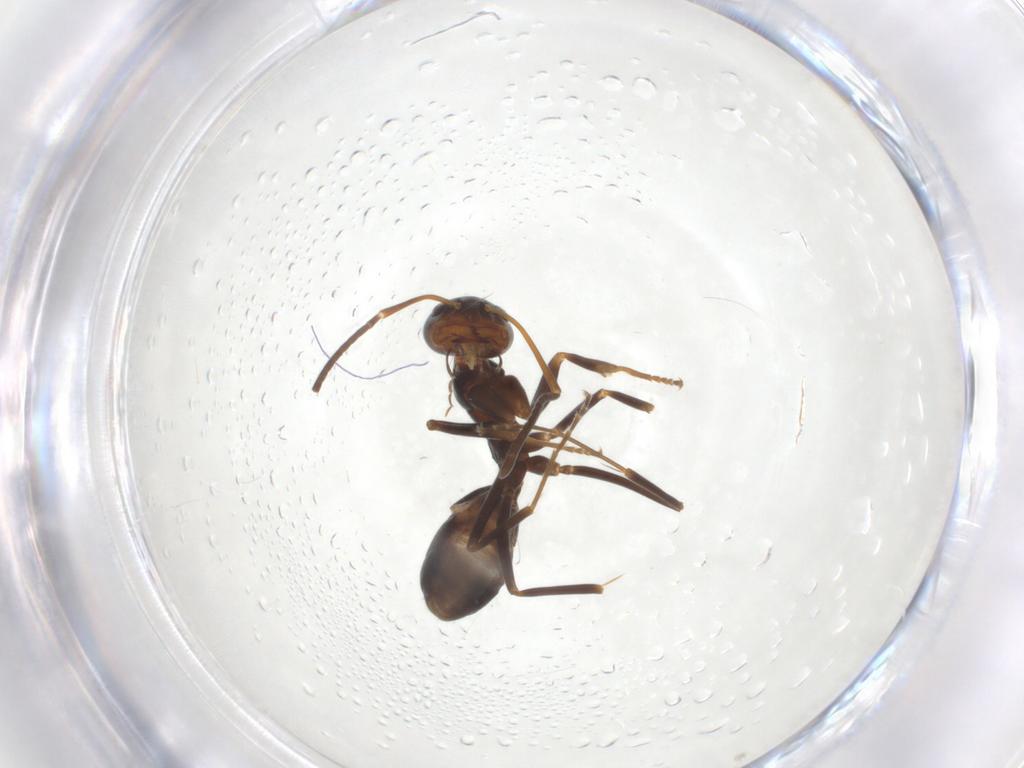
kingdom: Animalia
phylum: Arthropoda
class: Insecta
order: Hymenoptera
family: Formicidae
